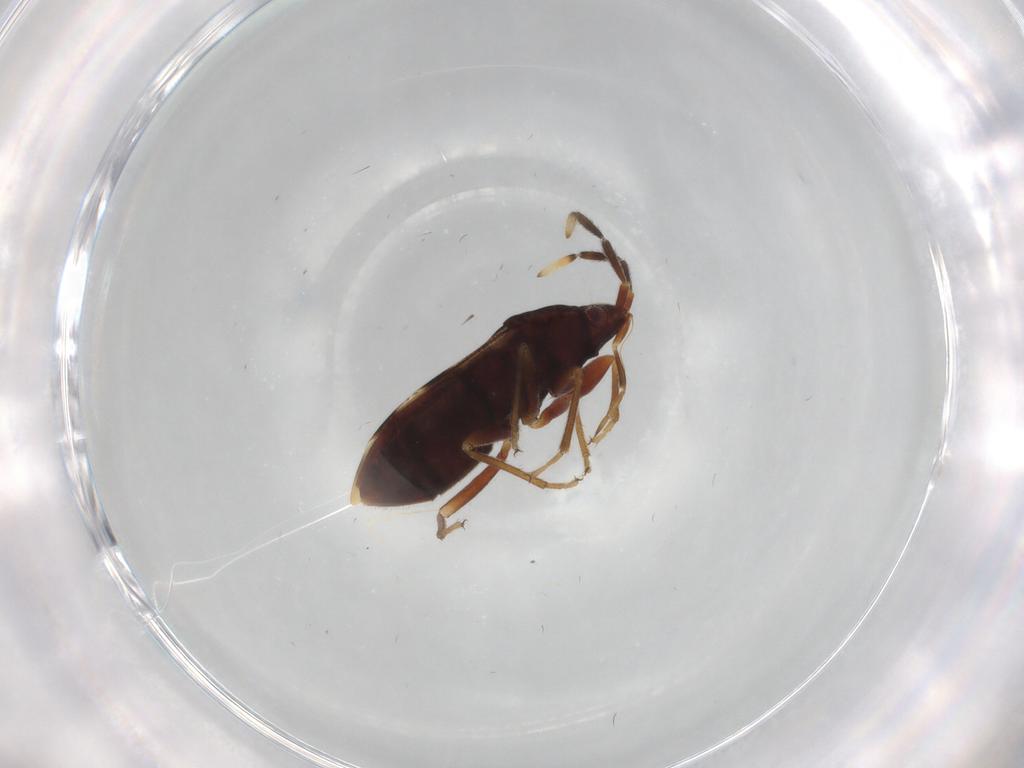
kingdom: Animalia
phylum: Arthropoda
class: Insecta
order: Hemiptera
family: Rhyparochromidae
